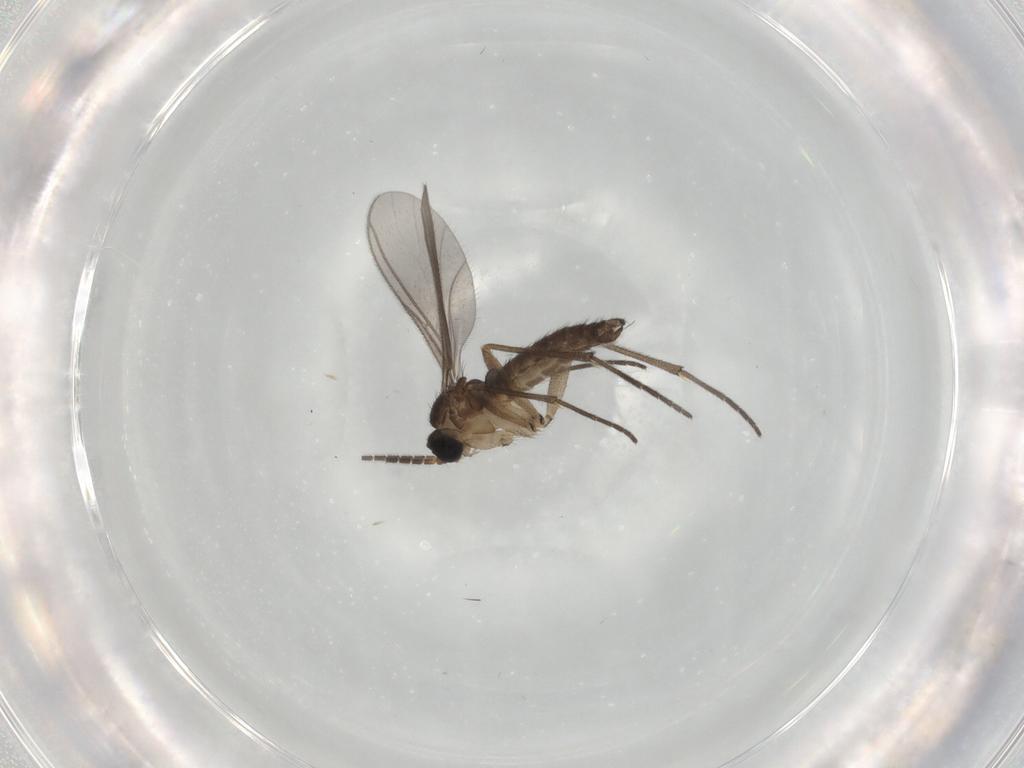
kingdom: Animalia
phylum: Arthropoda
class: Insecta
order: Diptera
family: Sciaridae
